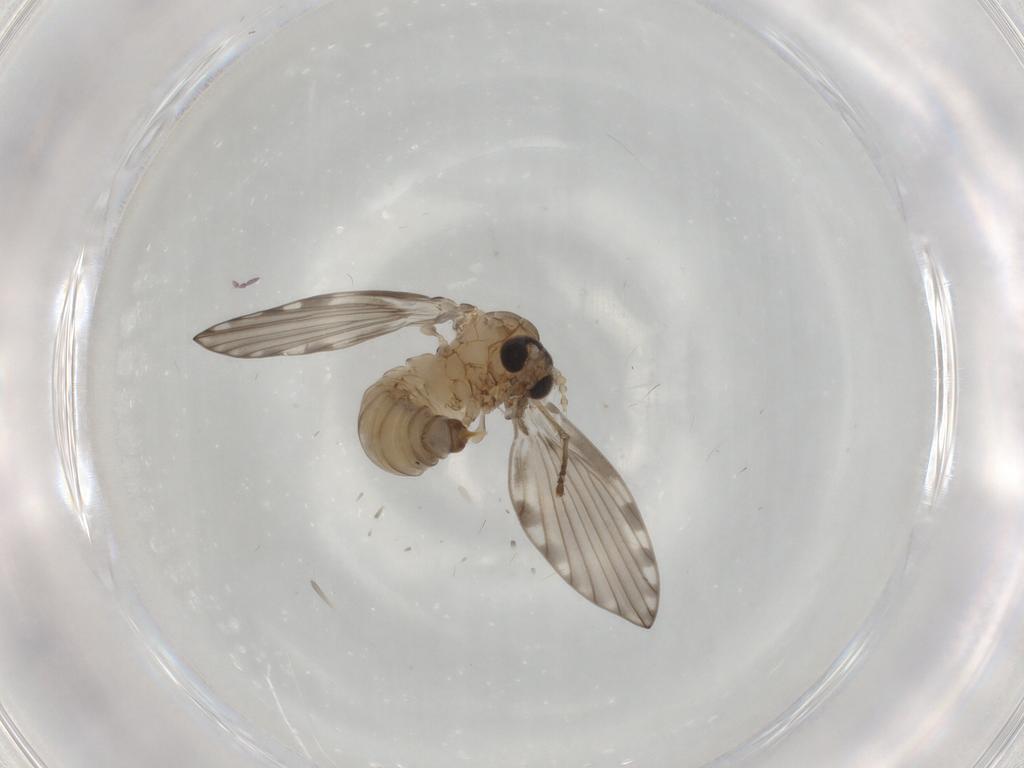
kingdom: Animalia
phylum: Arthropoda
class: Insecta
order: Diptera
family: Psychodidae
